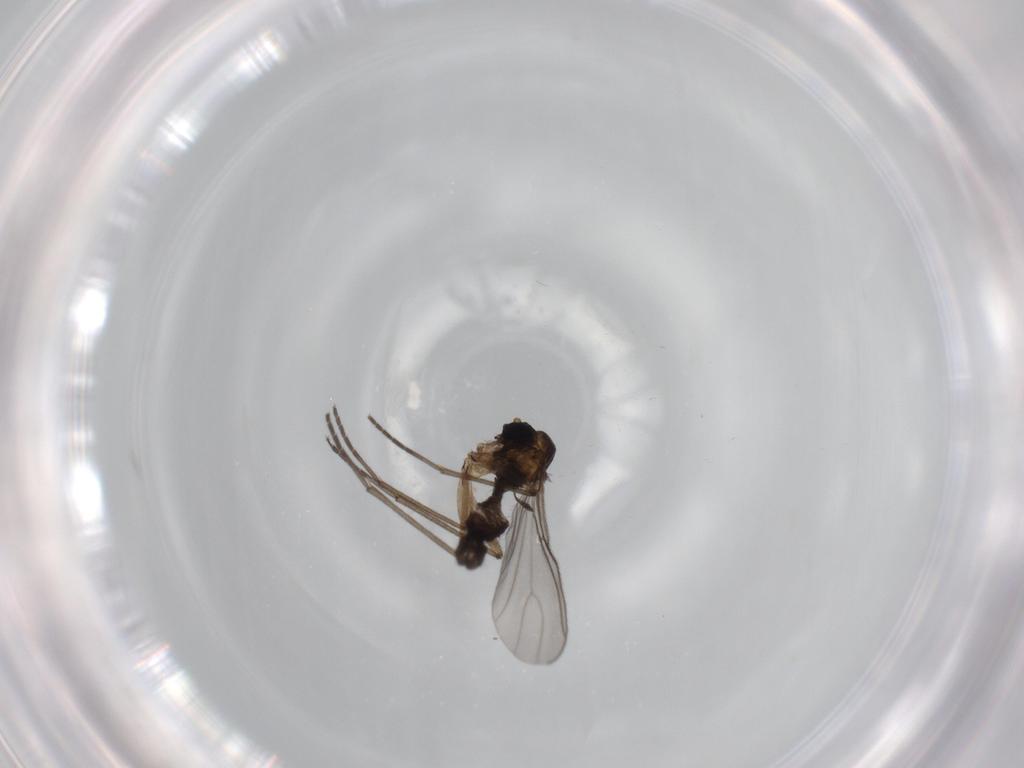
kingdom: Animalia
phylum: Arthropoda
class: Insecta
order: Diptera
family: Sciaridae
